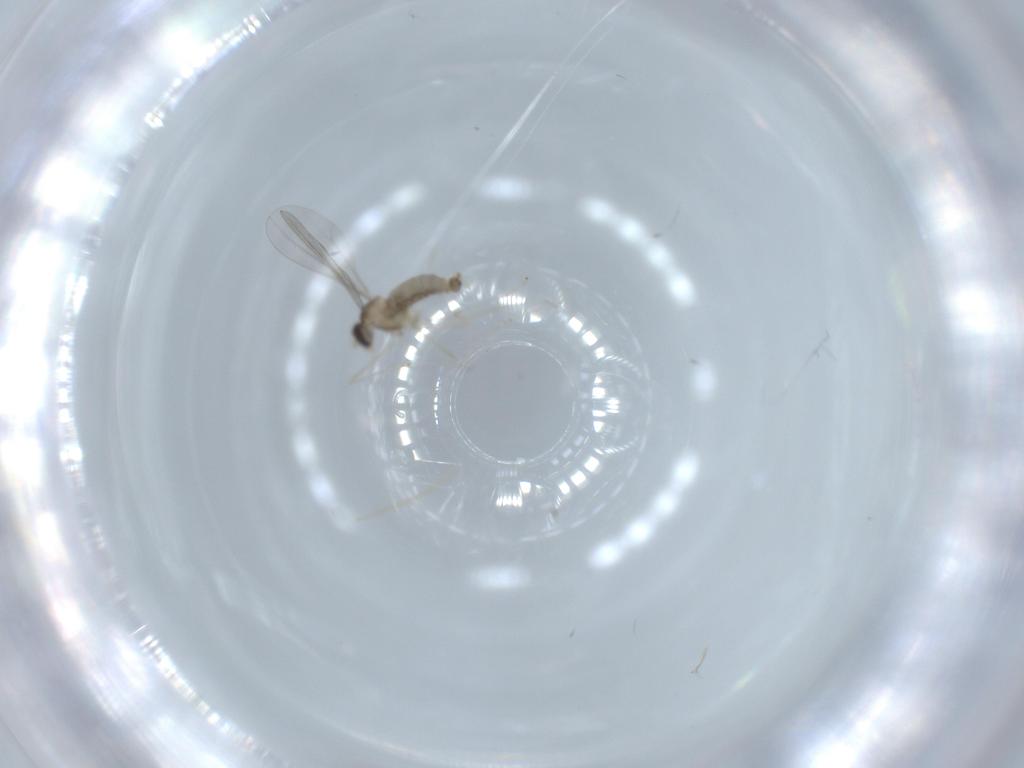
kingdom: Animalia
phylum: Arthropoda
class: Insecta
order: Diptera
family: Cecidomyiidae
